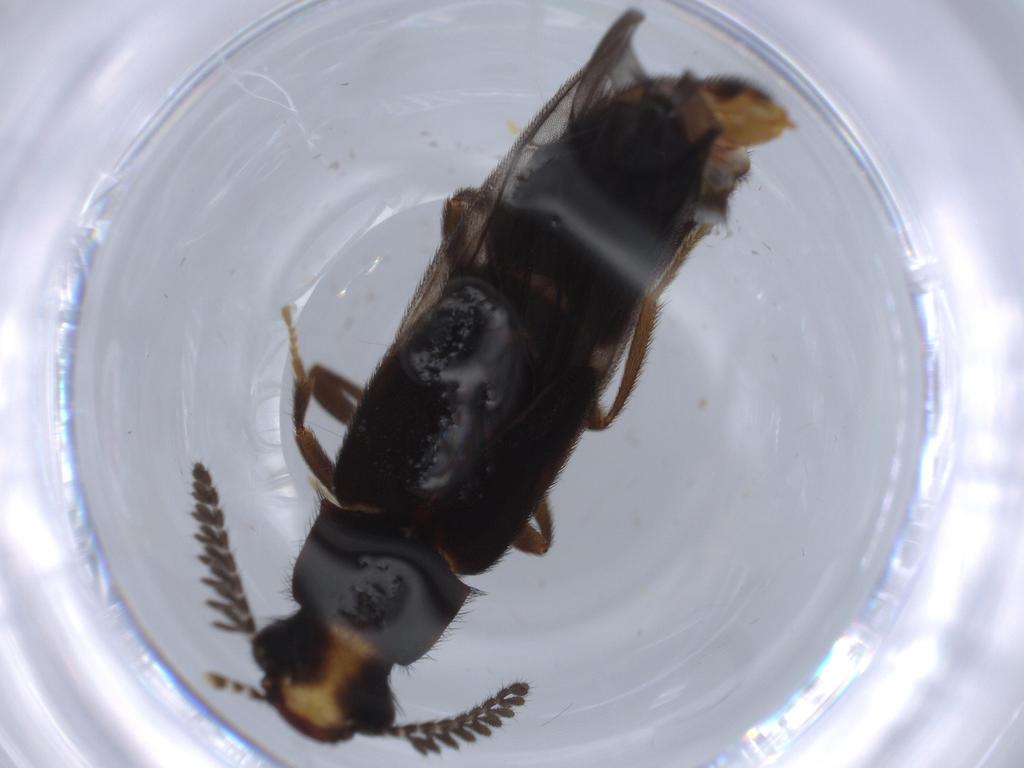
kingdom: Animalia
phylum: Arthropoda
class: Insecta
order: Coleoptera
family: Phengodidae
